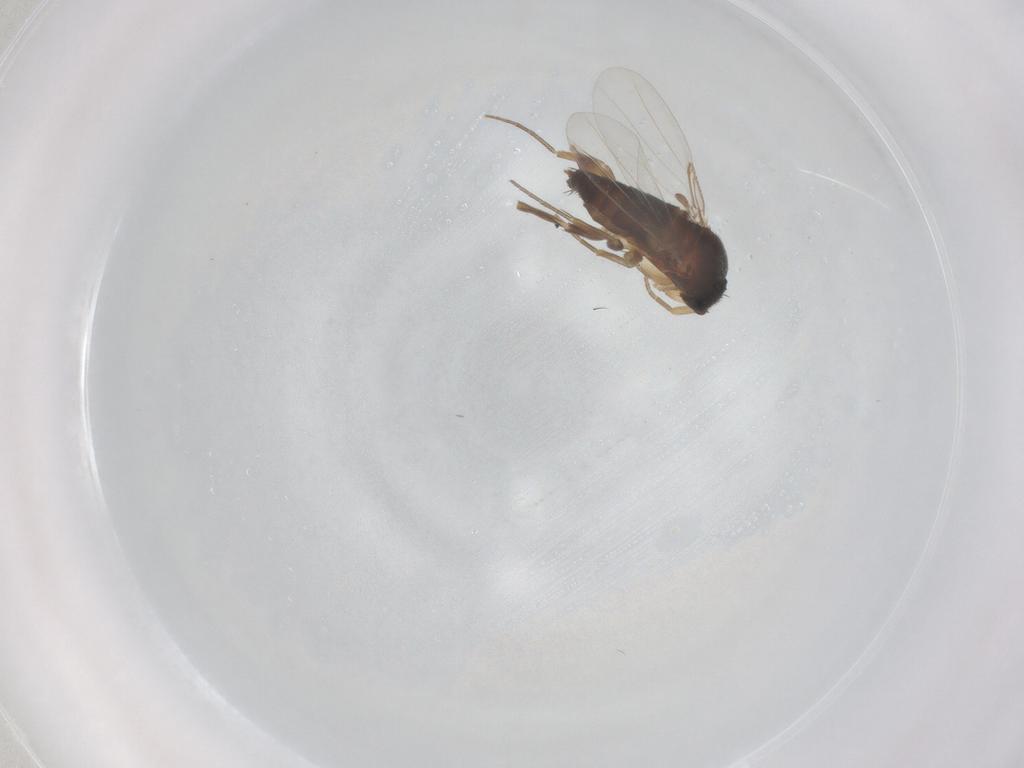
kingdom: Animalia
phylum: Arthropoda
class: Insecta
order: Diptera
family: Phoridae
